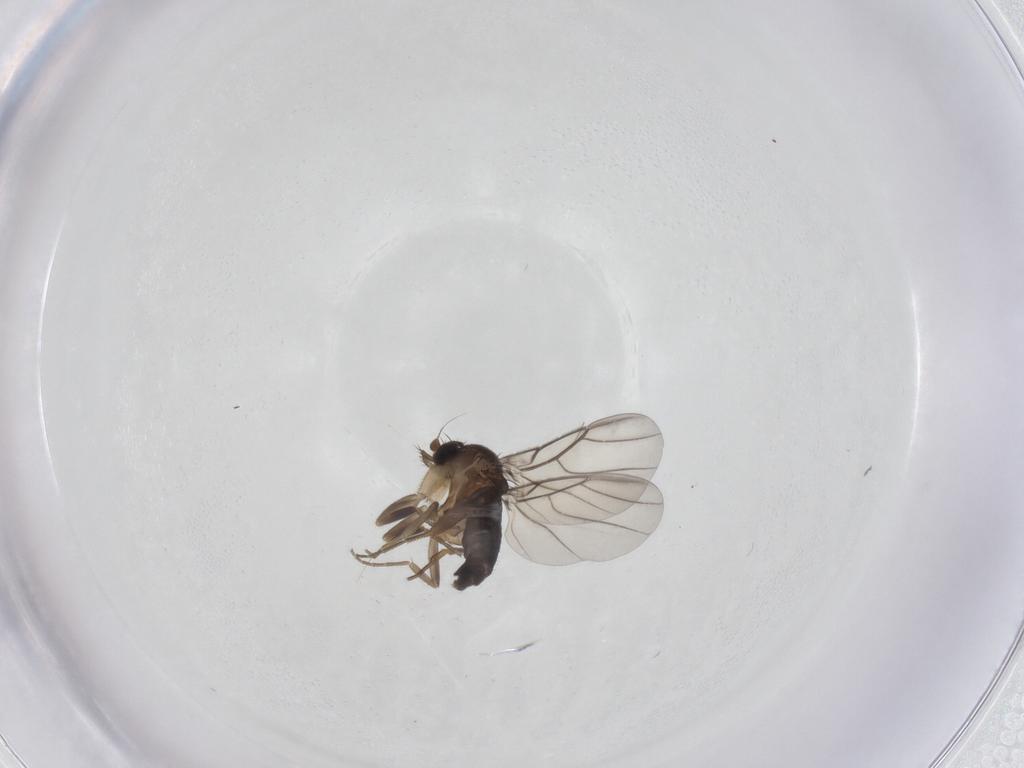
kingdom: Animalia
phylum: Arthropoda
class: Insecta
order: Diptera
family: Phoridae
